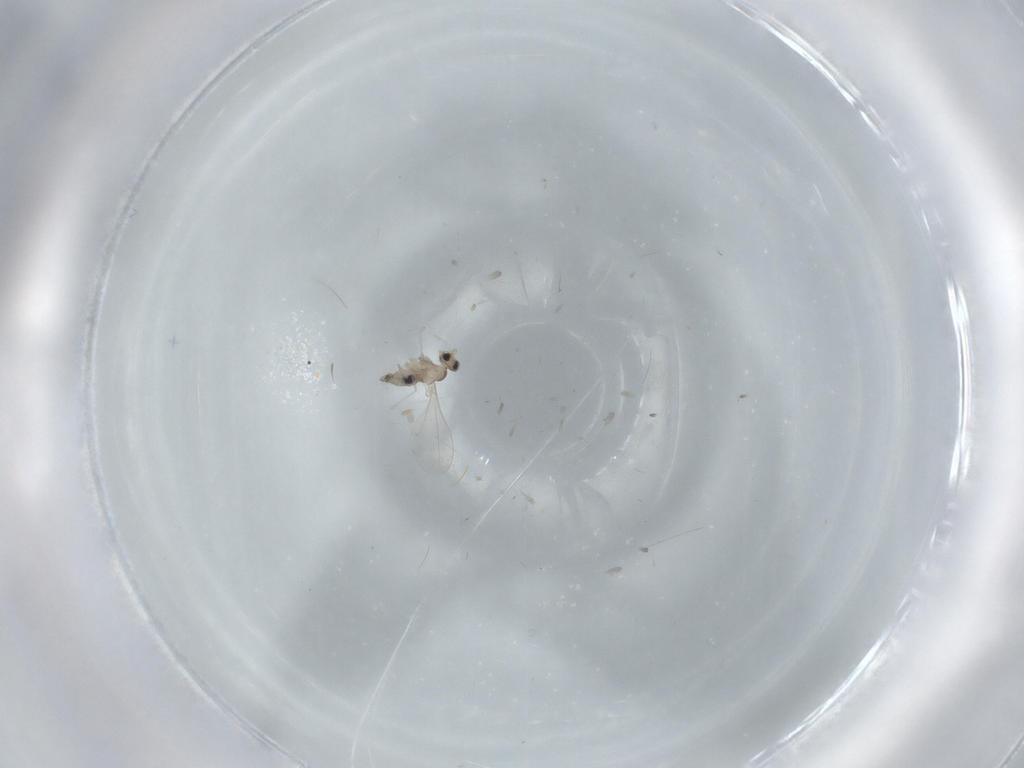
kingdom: Animalia
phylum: Arthropoda
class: Insecta
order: Diptera
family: Cecidomyiidae
